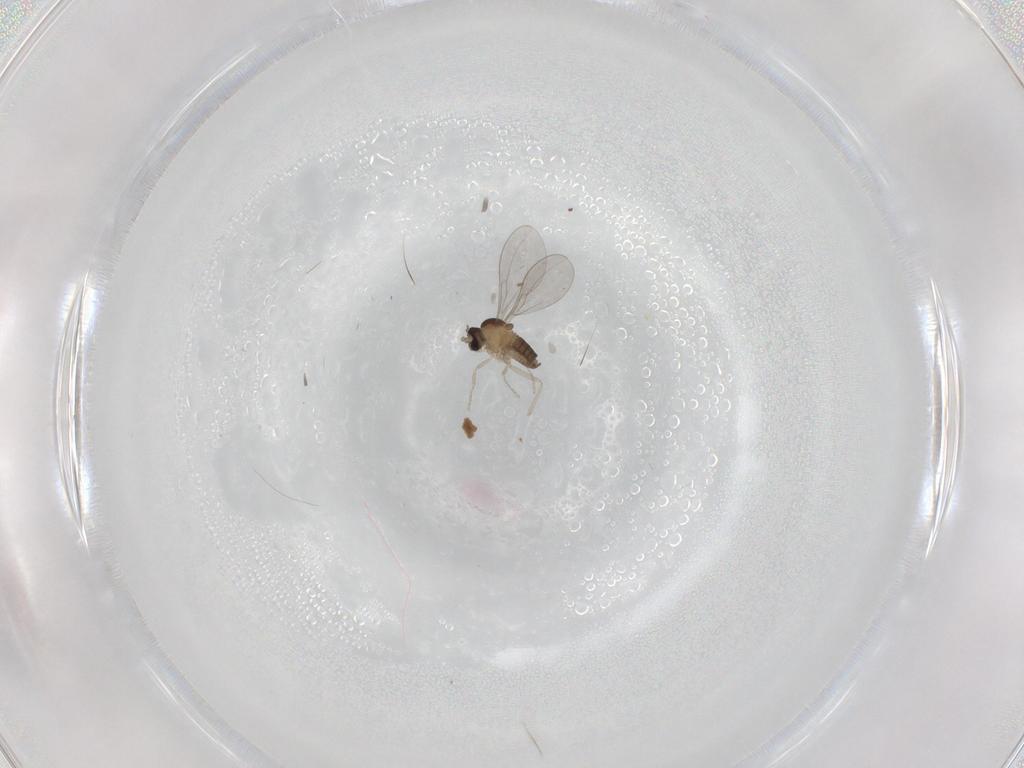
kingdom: Animalia
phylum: Arthropoda
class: Insecta
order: Diptera
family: Cecidomyiidae
